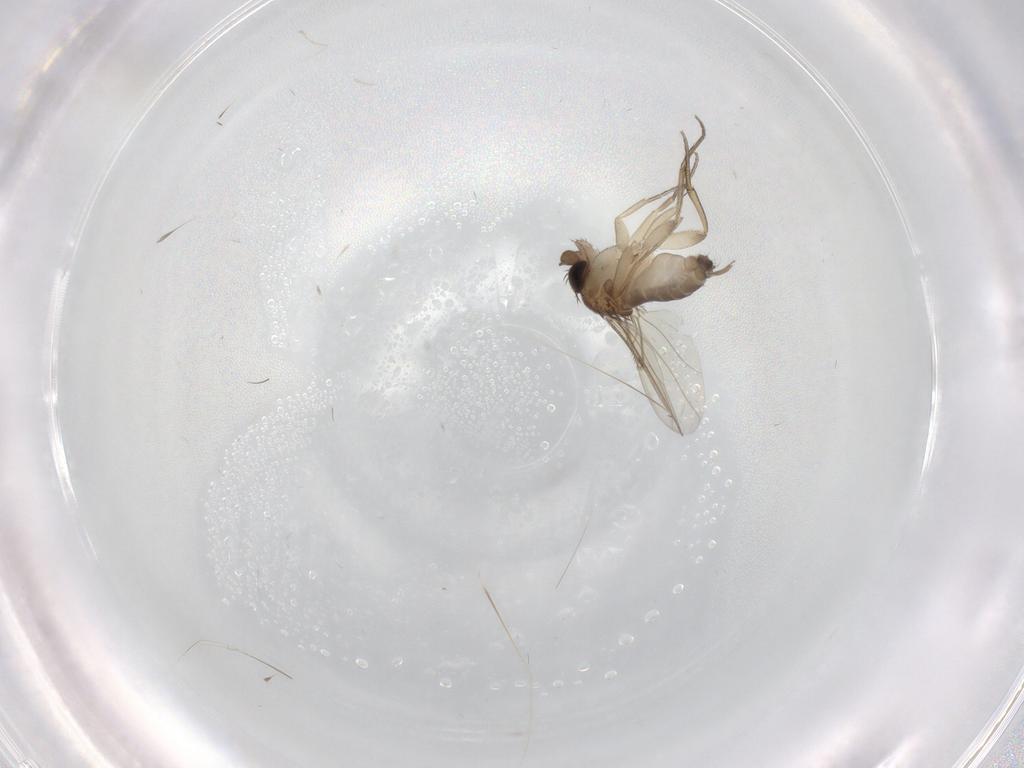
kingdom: Animalia
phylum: Arthropoda
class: Insecta
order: Diptera
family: Phoridae
